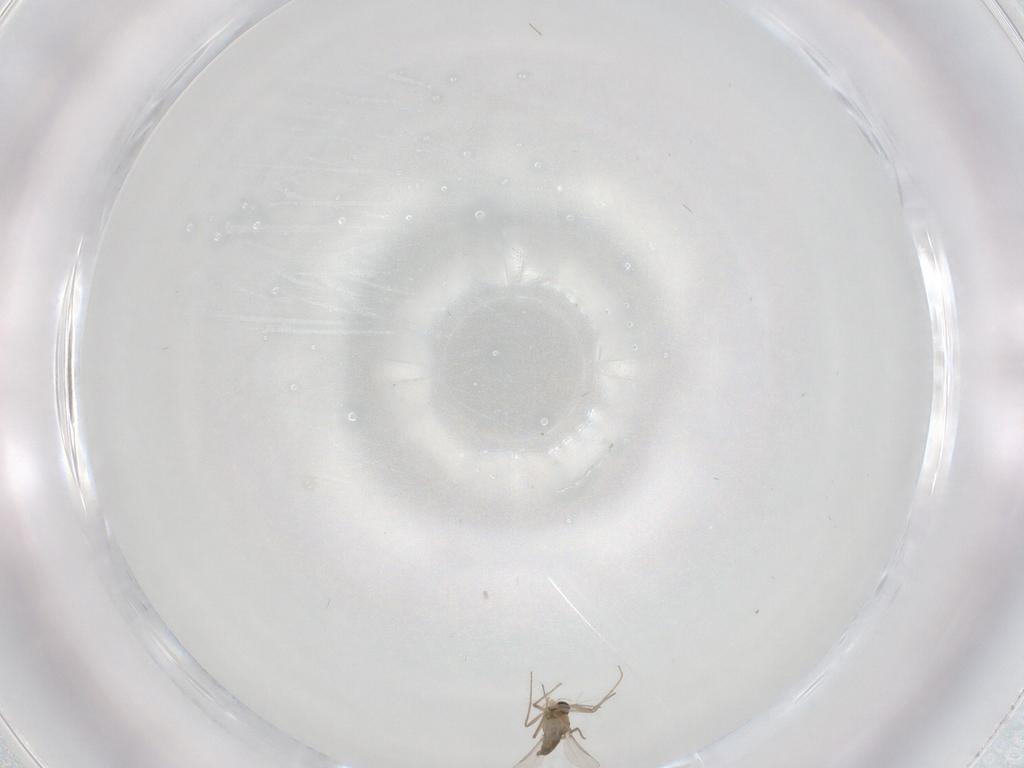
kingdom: Animalia
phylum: Arthropoda
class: Insecta
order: Diptera
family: Chironomidae
